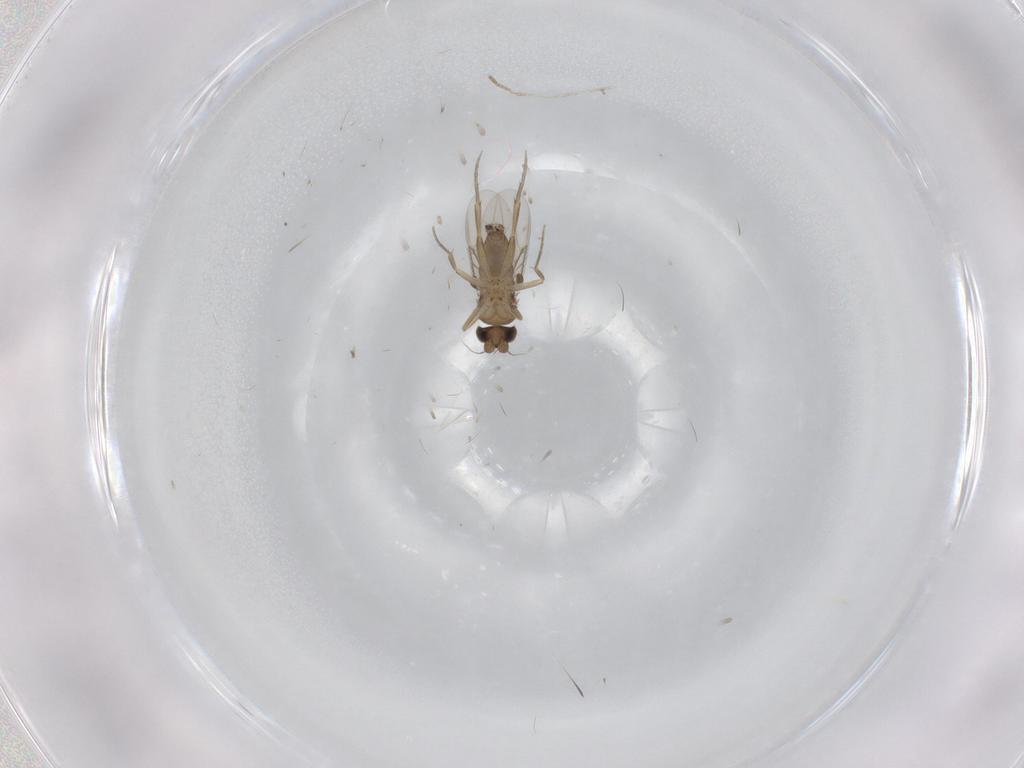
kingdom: Animalia
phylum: Arthropoda
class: Insecta
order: Diptera
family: Phoridae
